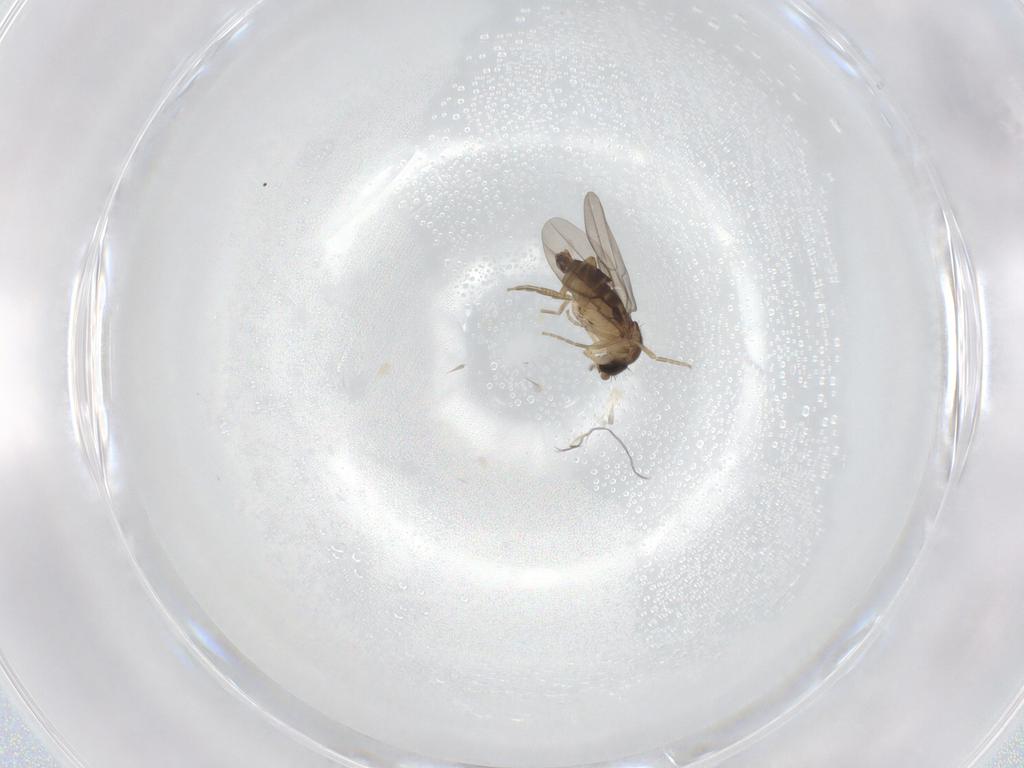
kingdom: Animalia
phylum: Arthropoda
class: Insecta
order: Diptera
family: Phoridae
